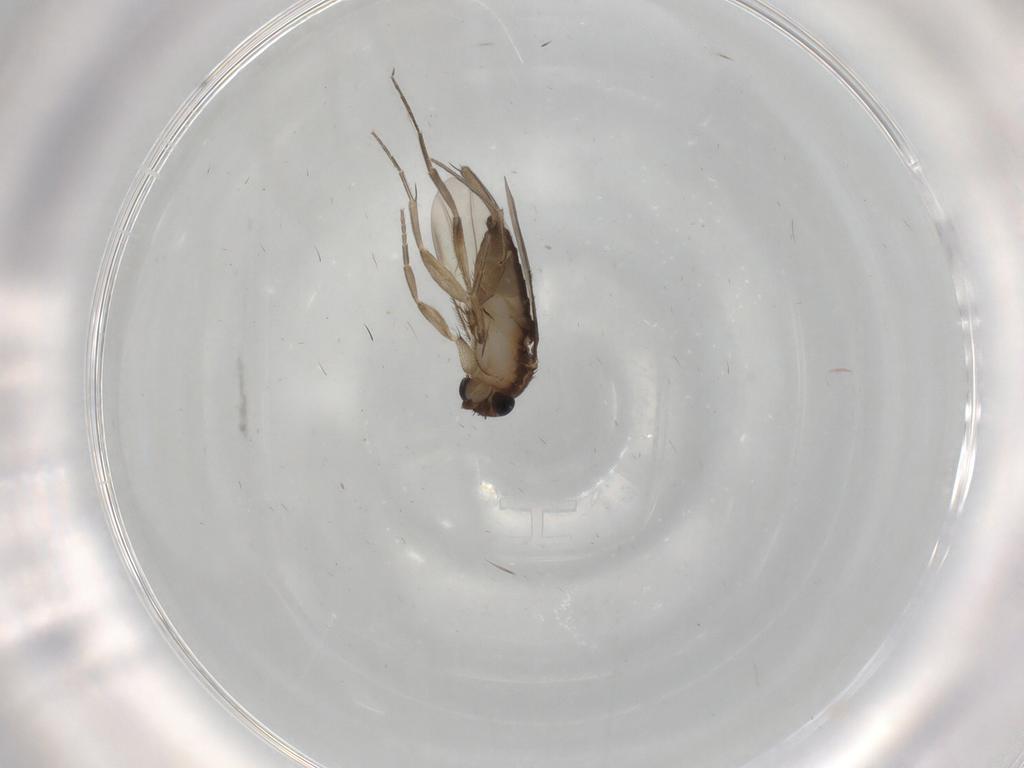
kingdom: Animalia
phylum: Arthropoda
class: Insecta
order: Diptera
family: Phoridae
